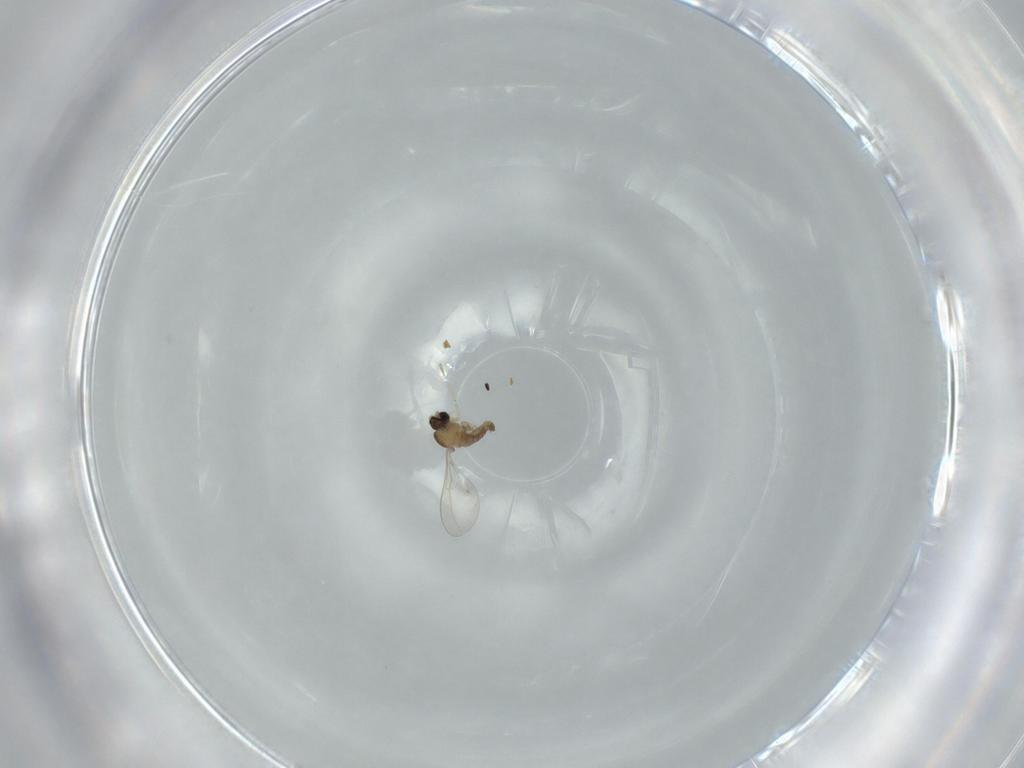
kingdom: Animalia
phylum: Arthropoda
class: Insecta
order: Diptera
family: Cecidomyiidae
